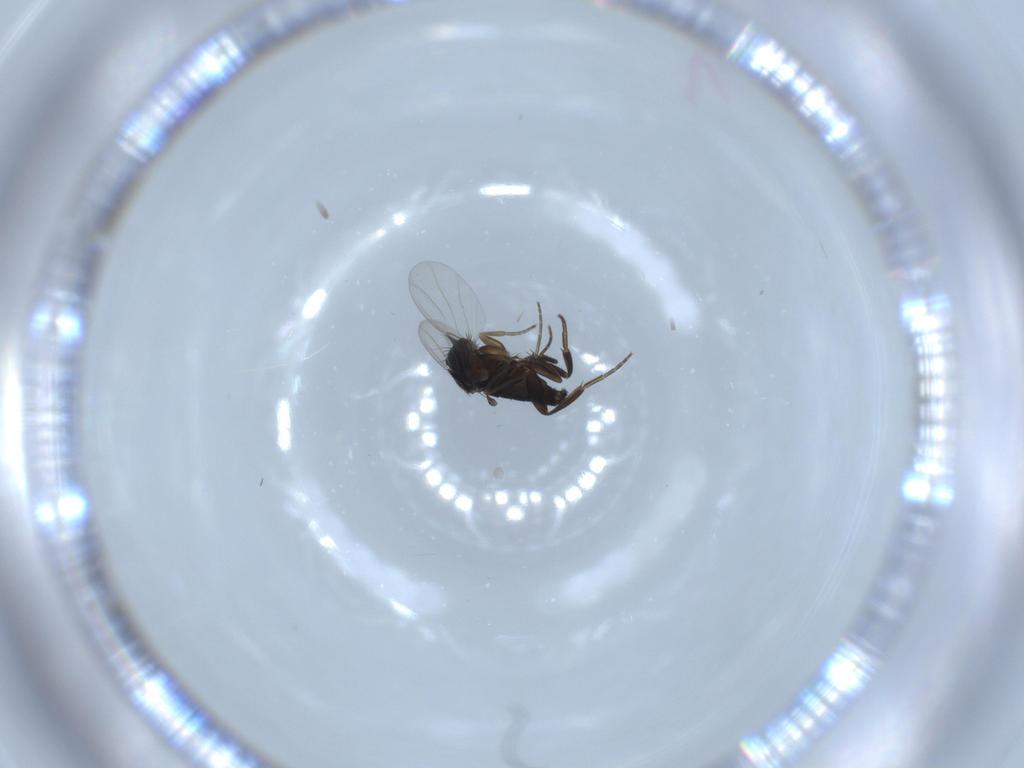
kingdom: Animalia
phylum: Arthropoda
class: Insecta
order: Diptera
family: Phoridae
